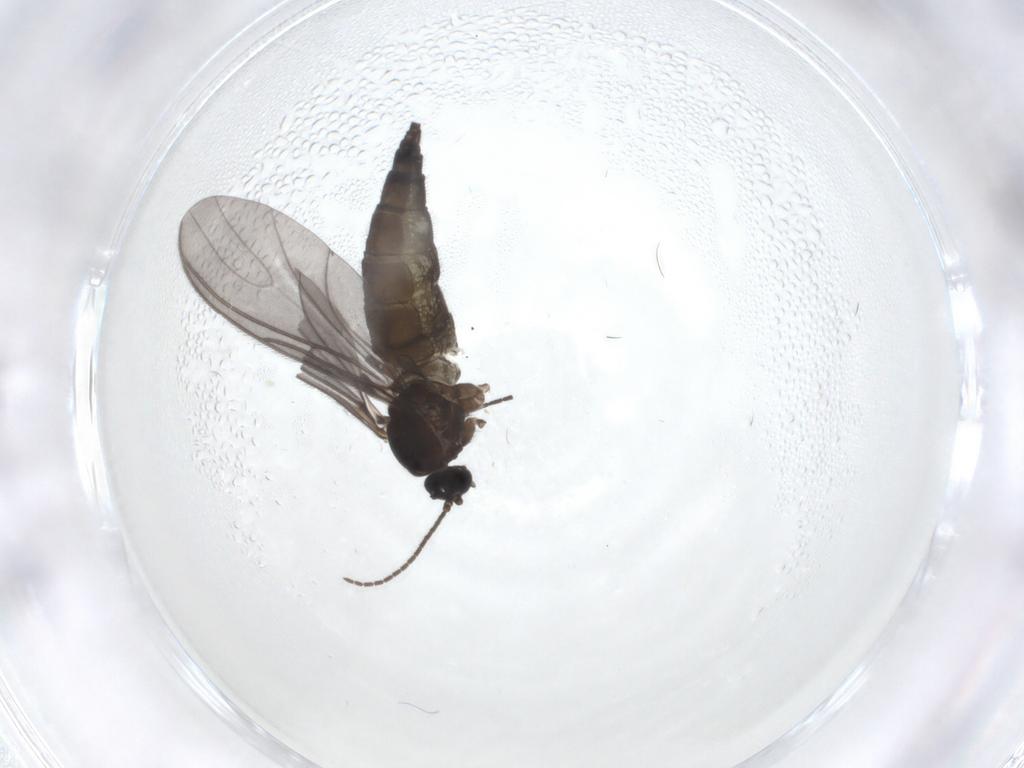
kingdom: Animalia
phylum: Arthropoda
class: Insecta
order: Diptera
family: Sciaridae
